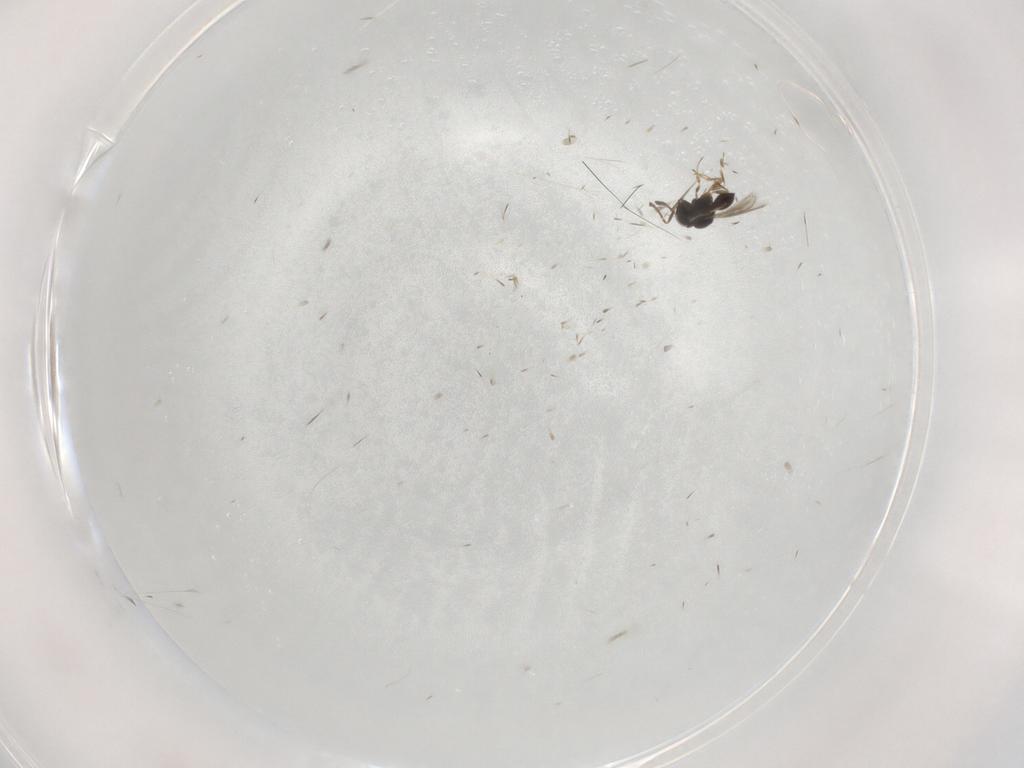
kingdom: Animalia
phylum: Arthropoda
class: Insecta
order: Hymenoptera
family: Scelionidae
